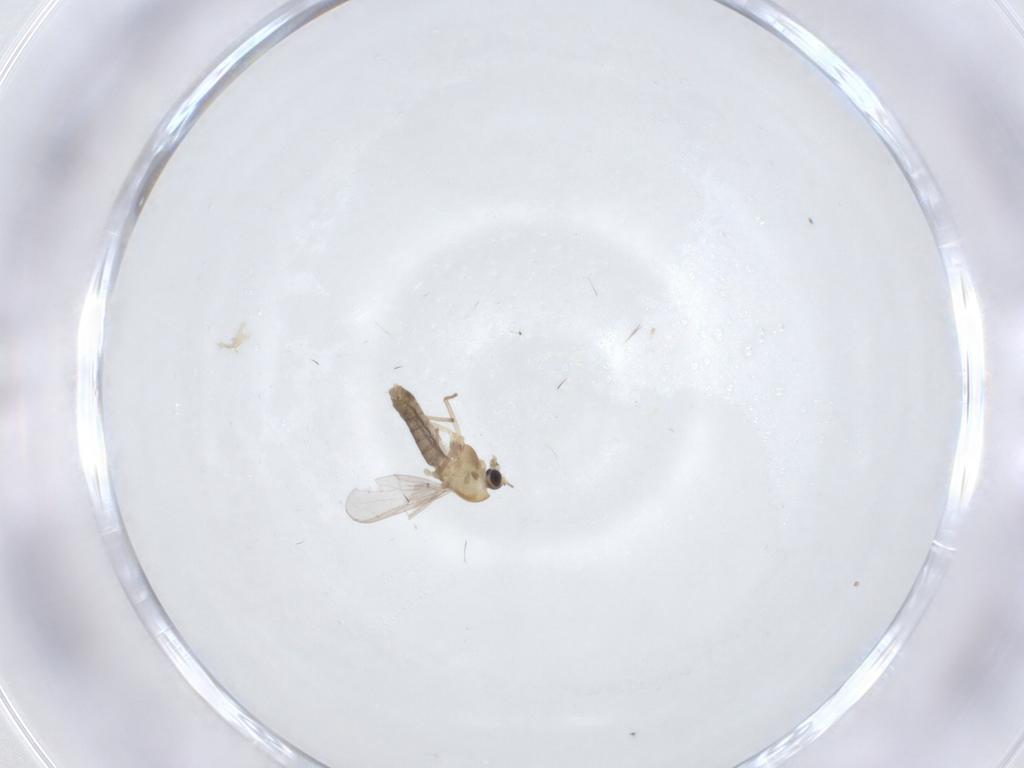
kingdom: Animalia
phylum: Arthropoda
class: Insecta
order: Diptera
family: Chironomidae
